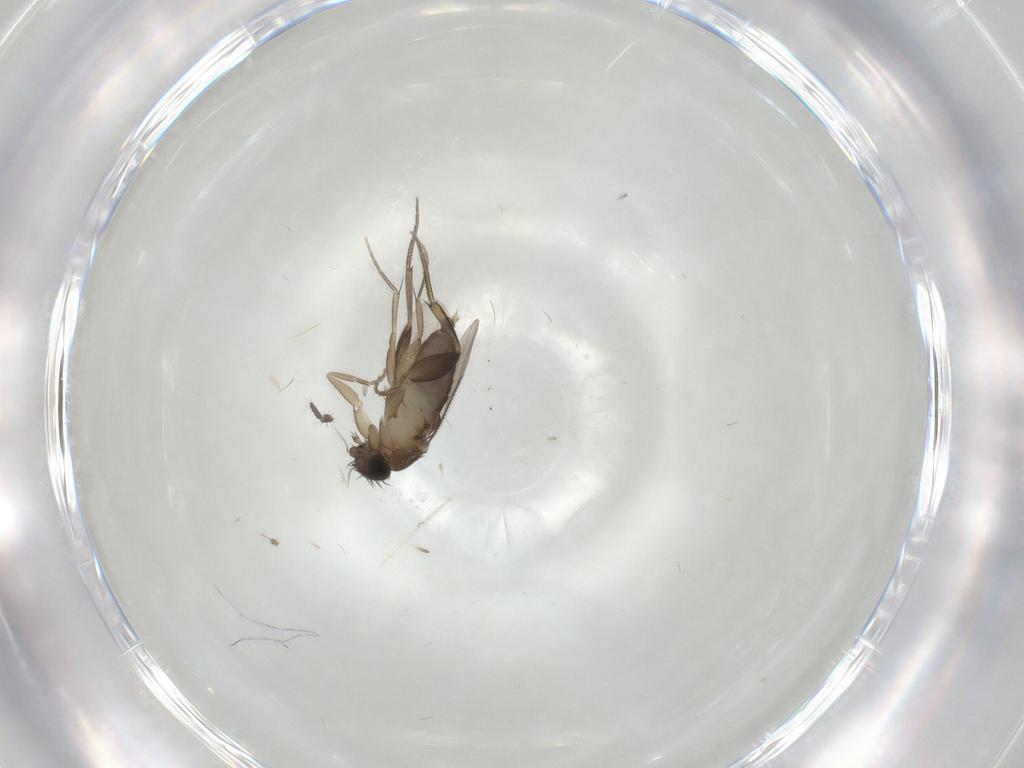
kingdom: Animalia
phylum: Arthropoda
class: Insecta
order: Diptera
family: Phoridae
